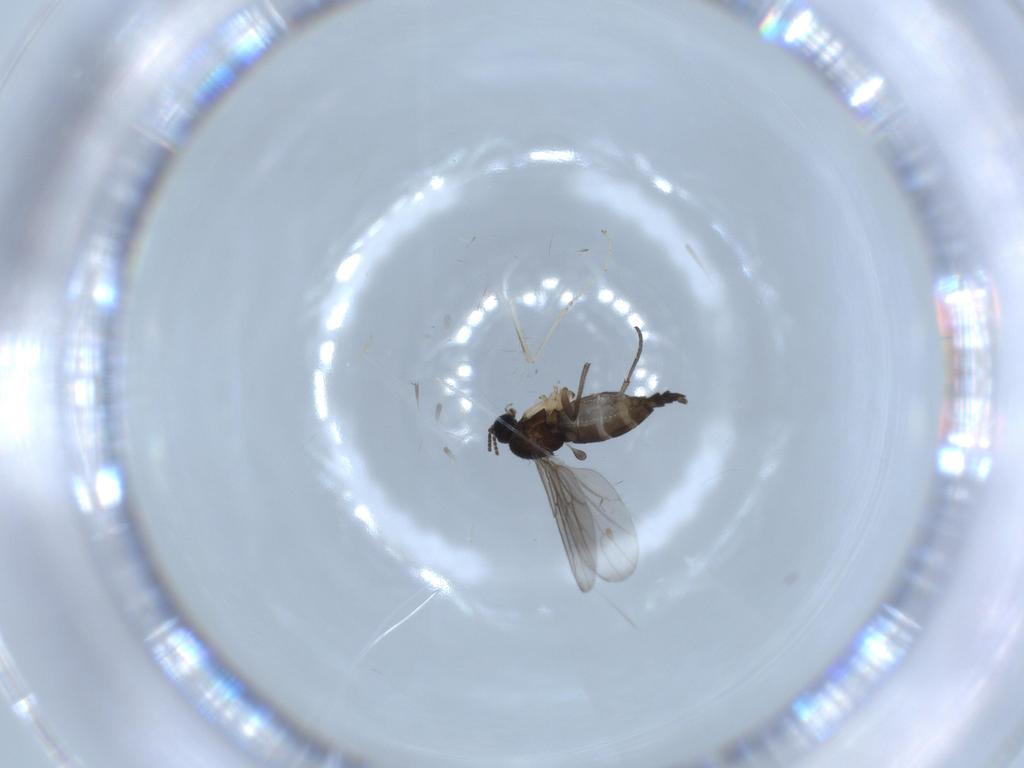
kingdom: Animalia
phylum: Arthropoda
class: Insecta
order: Diptera
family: Sciaridae
